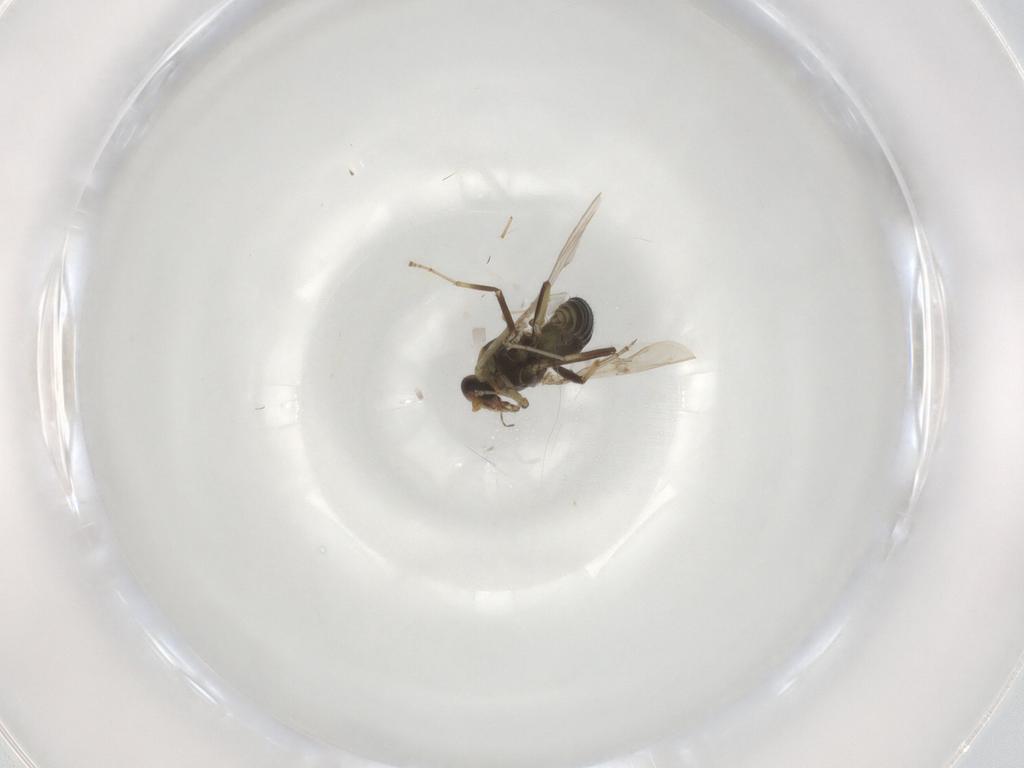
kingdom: Animalia
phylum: Arthropoda
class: Insecta
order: Diptera
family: Ceratopogonidae
